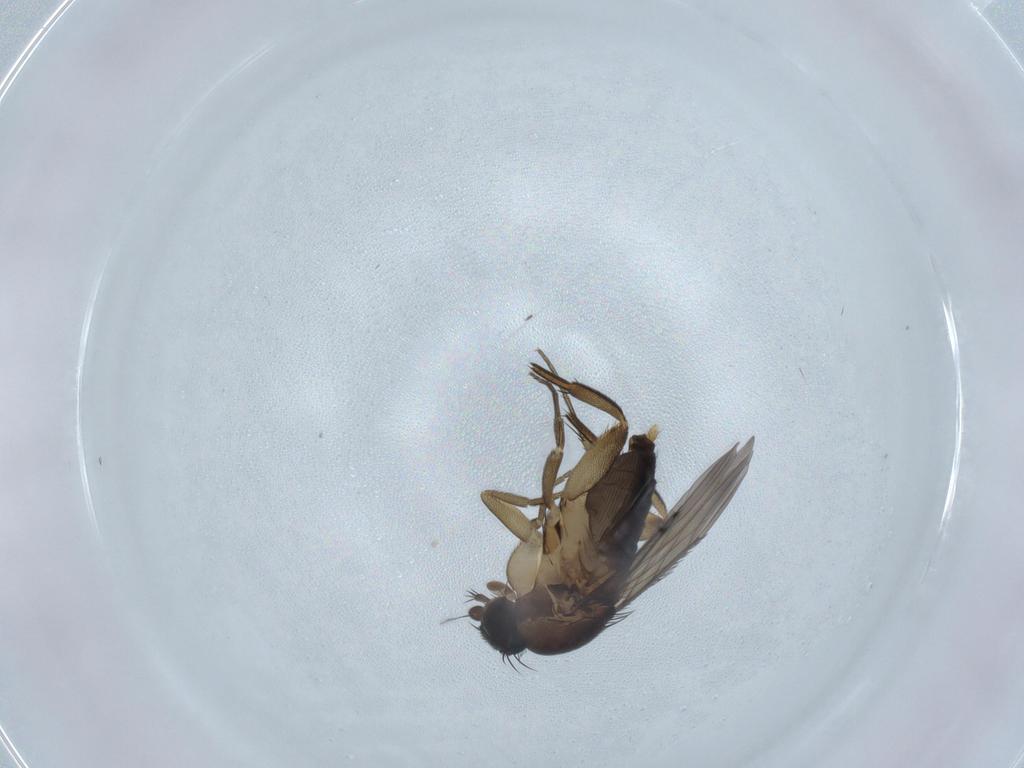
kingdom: Animalia
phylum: Arthropoda
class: Insecta
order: Diptera
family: Phoridae
